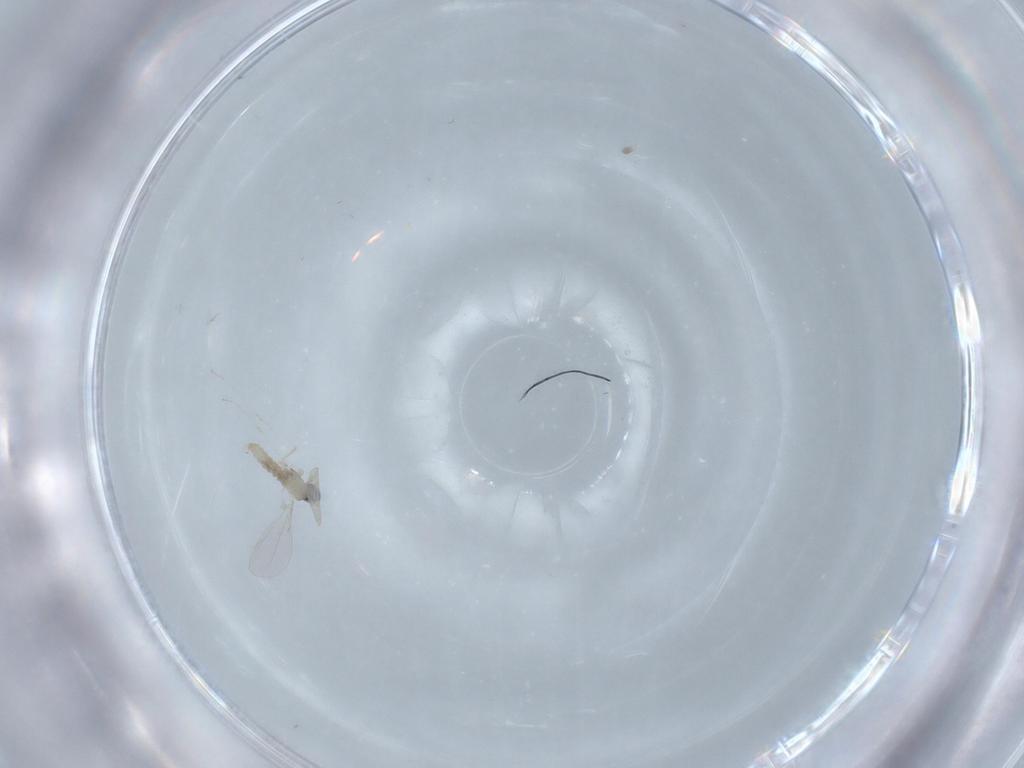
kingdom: Animalia
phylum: Arthropoda
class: Insecta
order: Diptera
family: Cecidomyiidae
